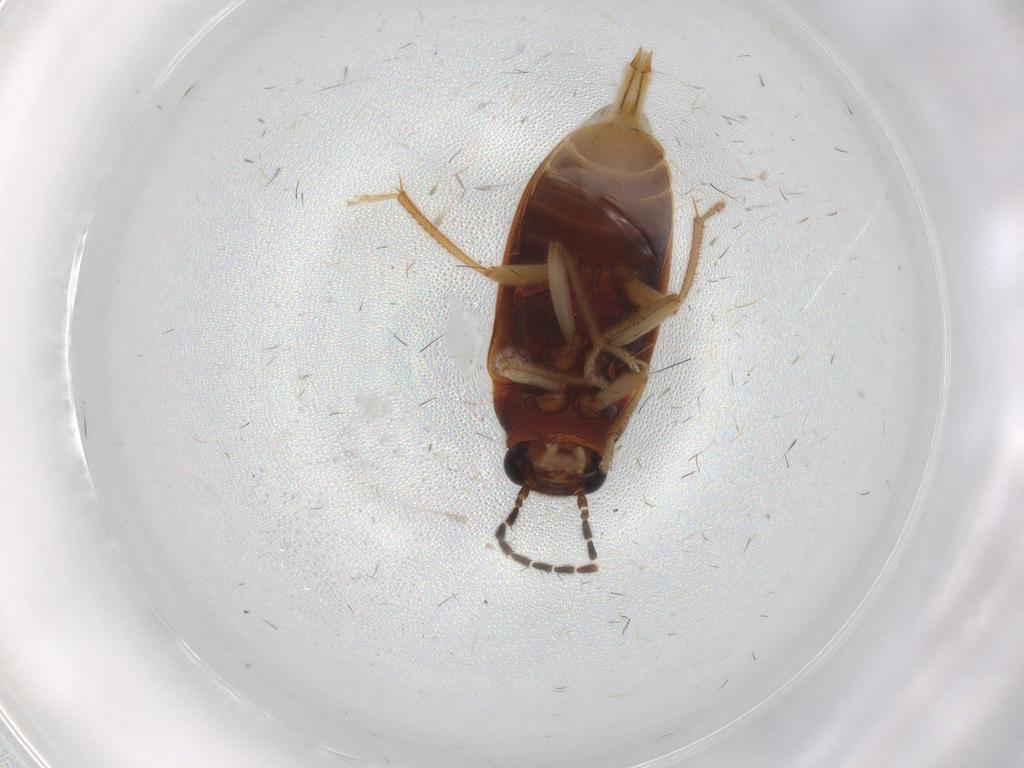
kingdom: Animalia
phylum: Arthropoda
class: Insecta
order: Coleoptera
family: Ptilodactylidae
